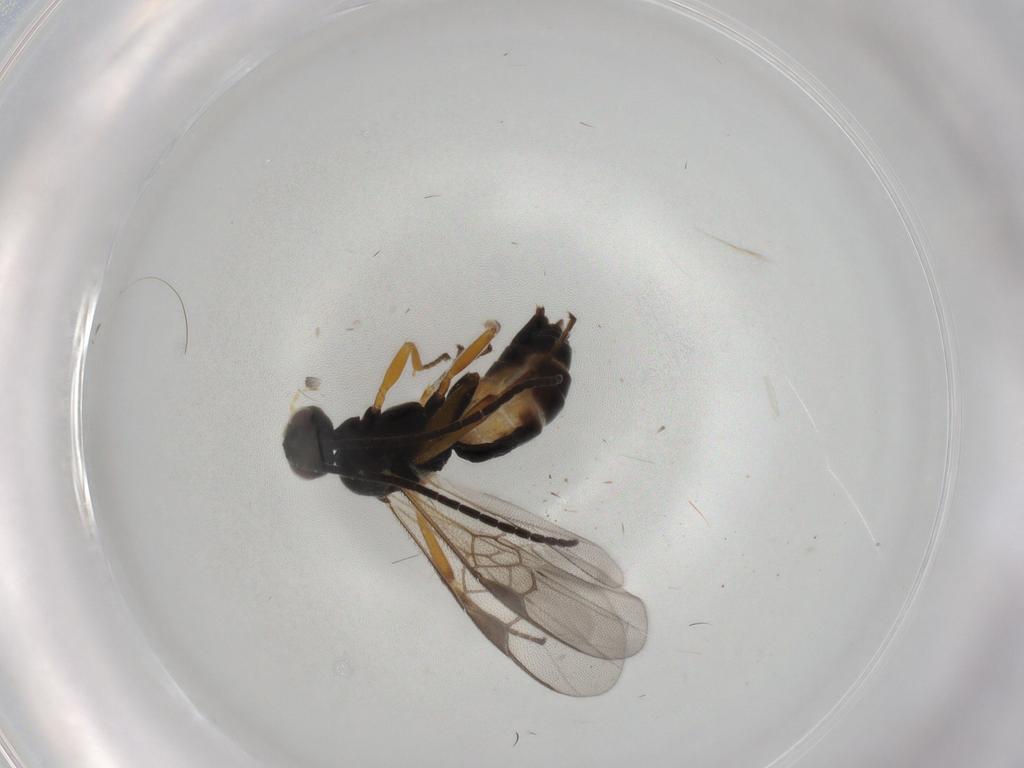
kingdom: Animalia
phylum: Arthropoda
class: Insecta
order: Hymenoptera
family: Braconidae
